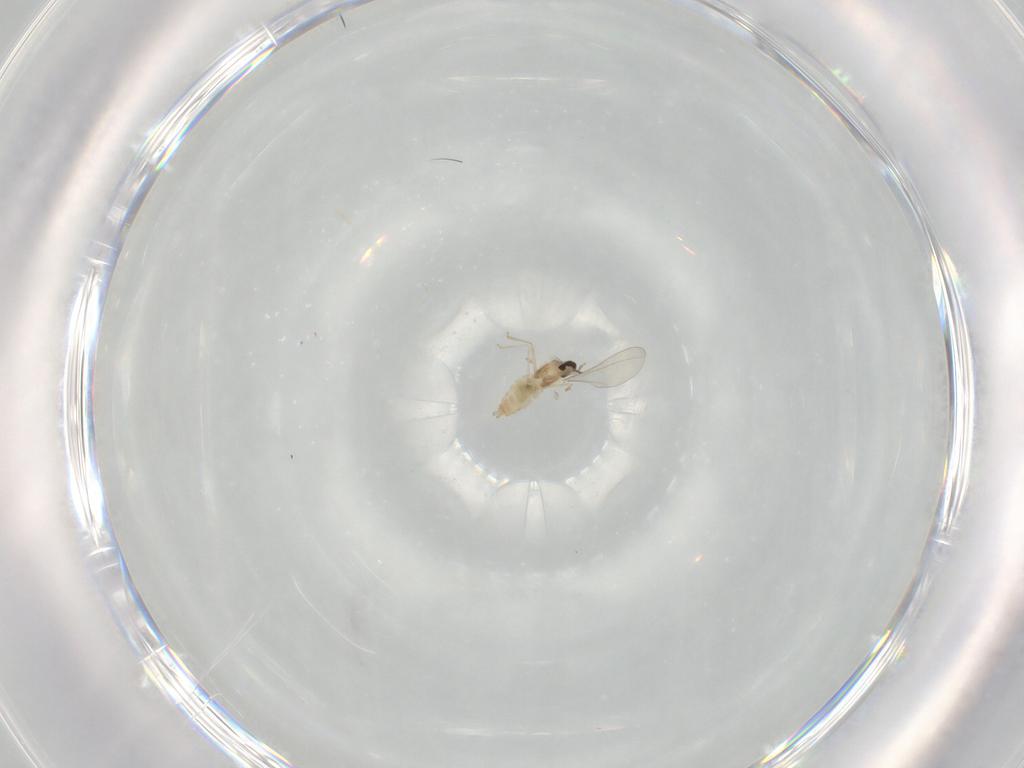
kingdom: Animalia
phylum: Arthropoda
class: Insecta
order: Diptera
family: Cecidomyiidae
